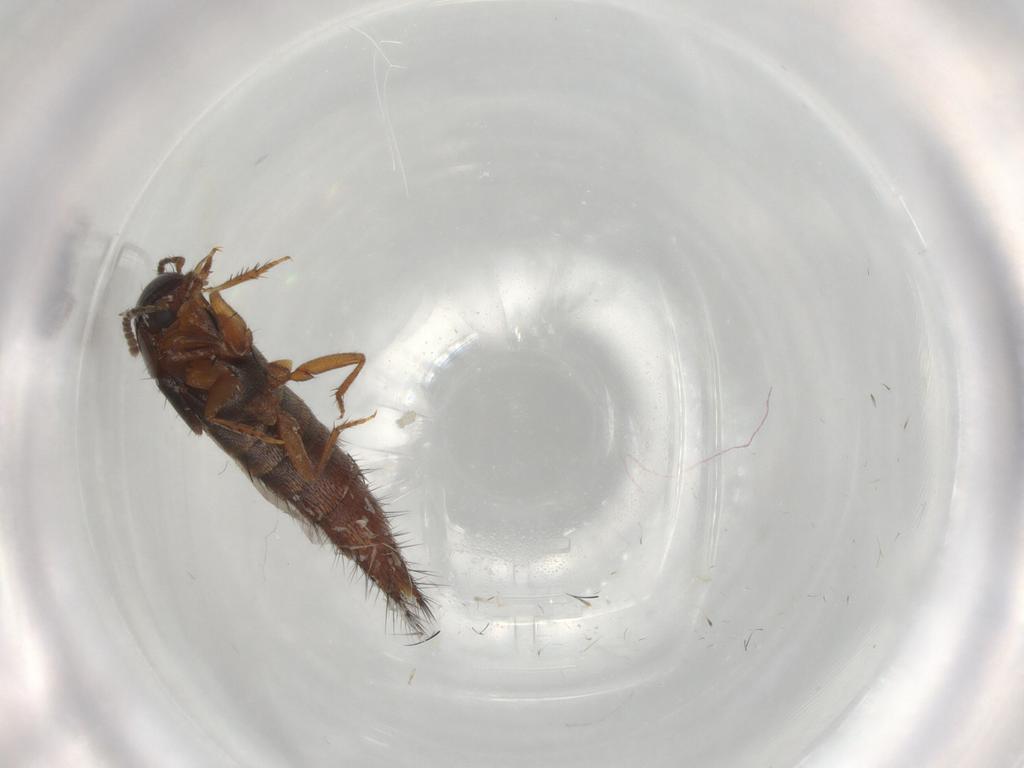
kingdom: Animalia
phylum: Arthropoda
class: Insecta
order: Coleoptera
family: Staphylinidae
